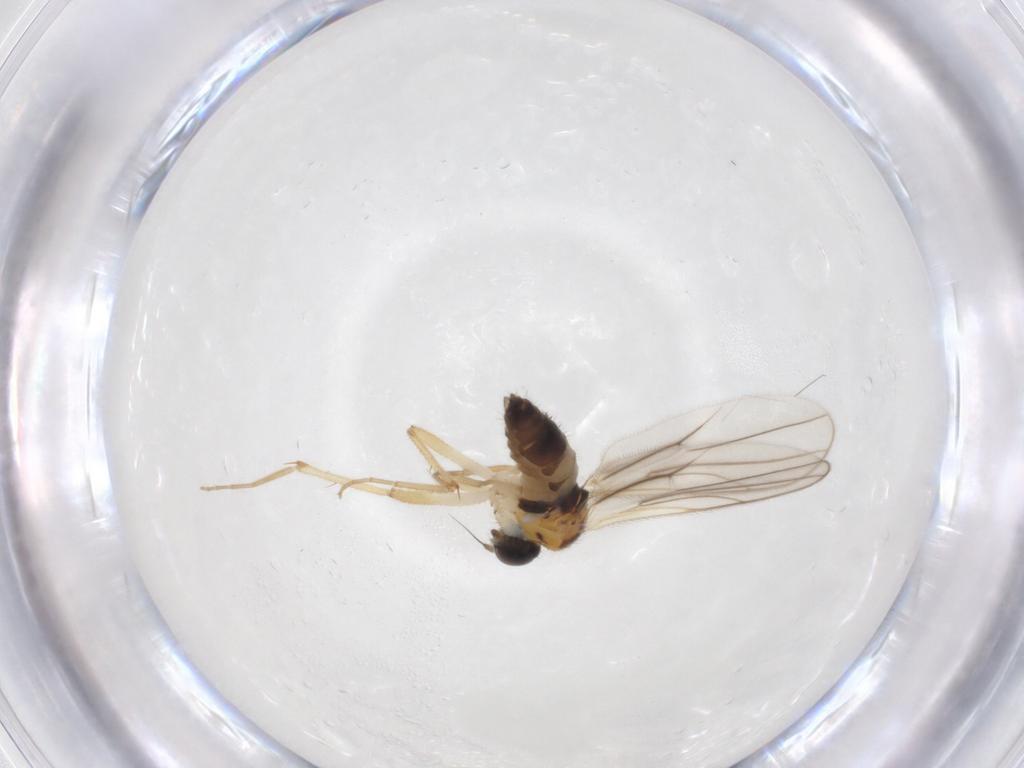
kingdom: Animalia
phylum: Arthropoda
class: Insecta
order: Diptera
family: Hybotidae
